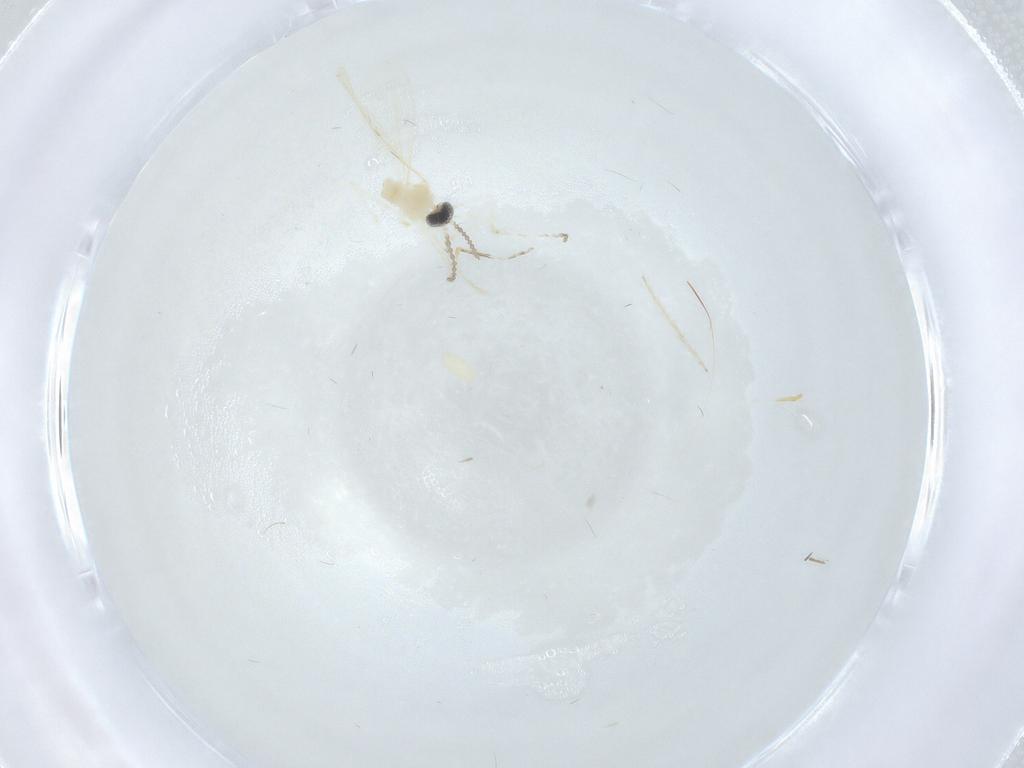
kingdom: Animalia
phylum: Arthropoda
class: Insecta
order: Diptera
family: Cecidomyiidae
